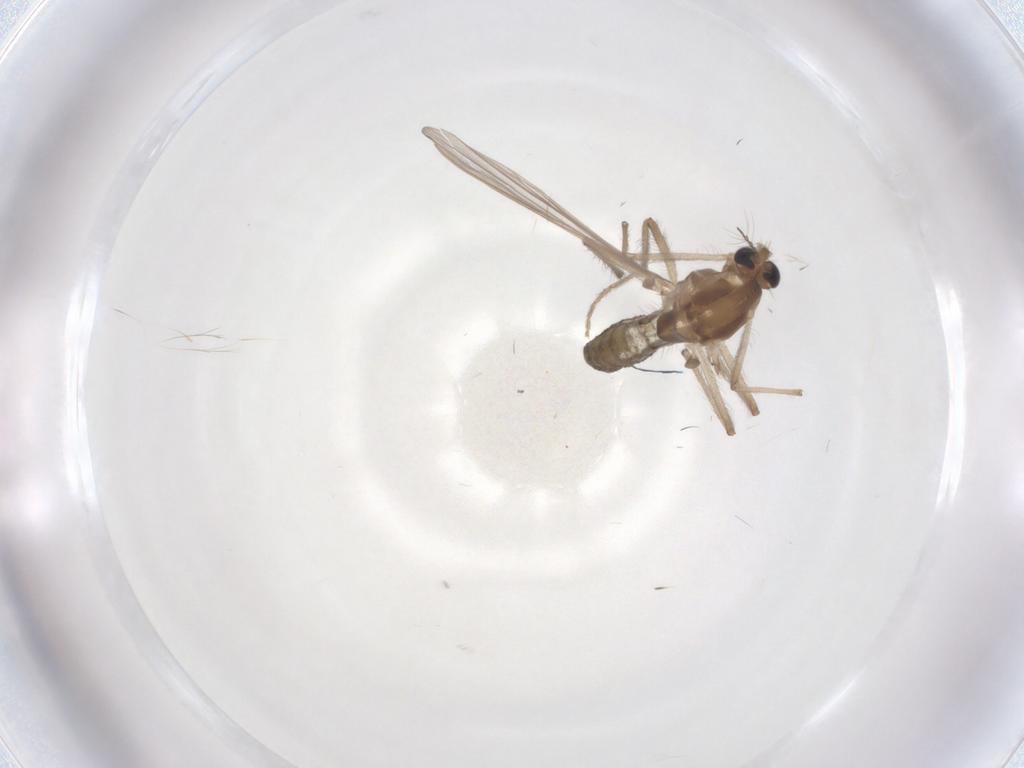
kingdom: Animalia
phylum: Arthropoda
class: Insecta
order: Diptera
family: Chironomidae
